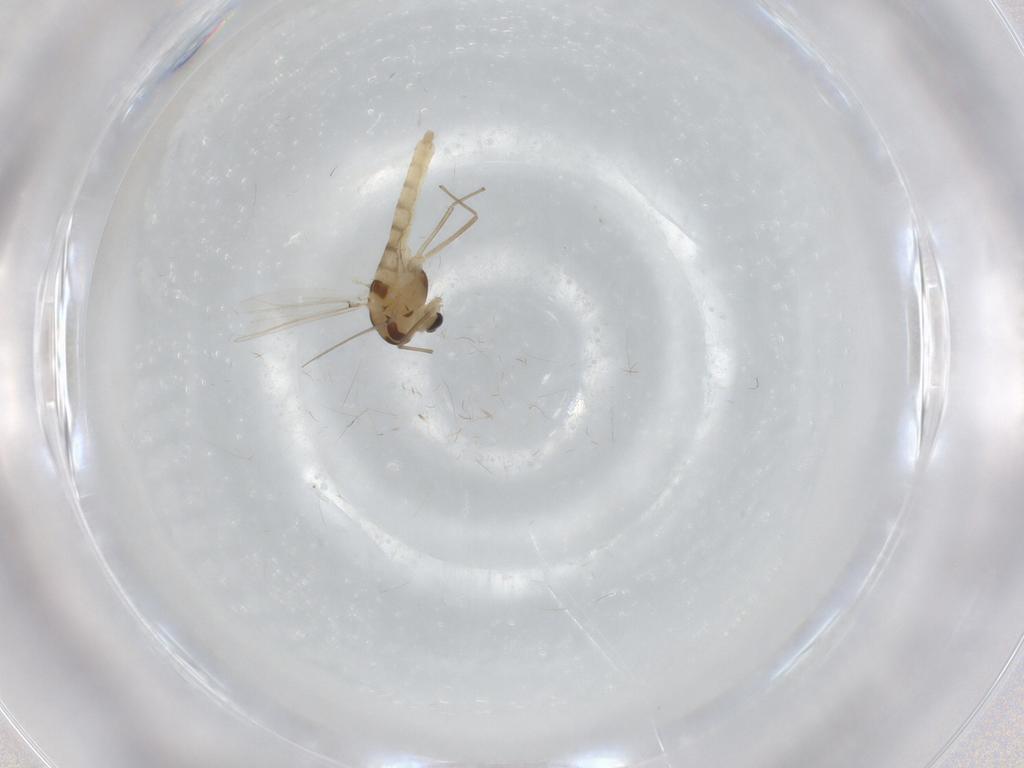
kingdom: Animalia
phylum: Arthropoda
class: Insecta
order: Diptera
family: Chironomidae
